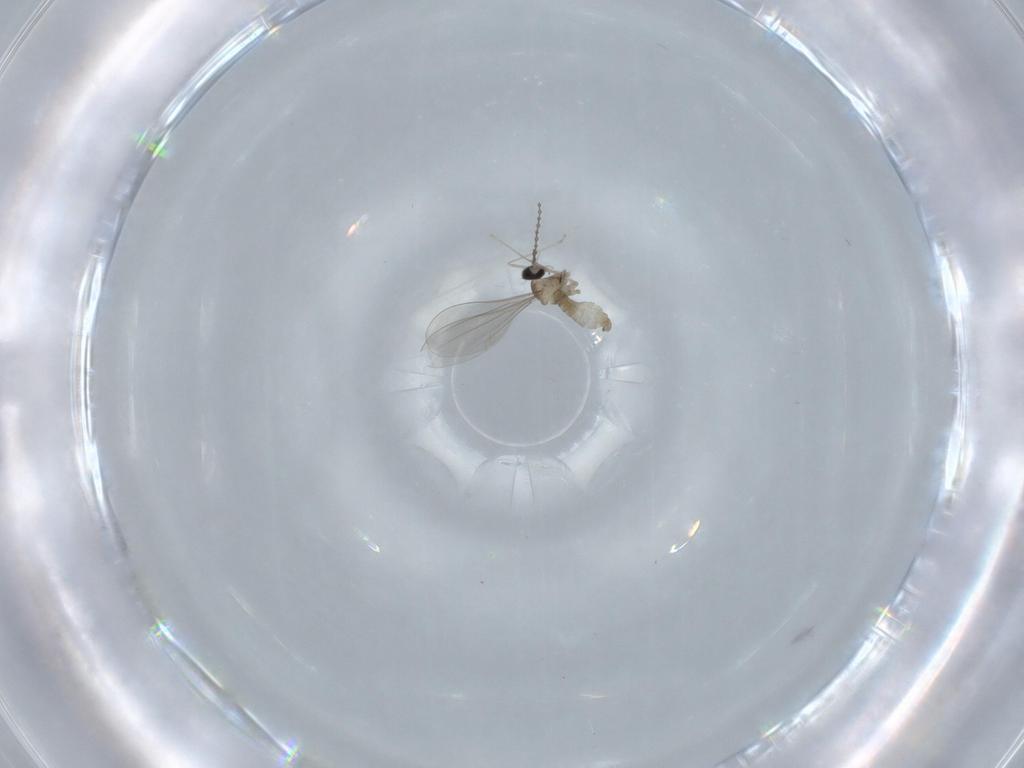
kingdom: Animalia
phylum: Arthropoda
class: Insecta
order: Diptera
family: Cecidomyiidae
